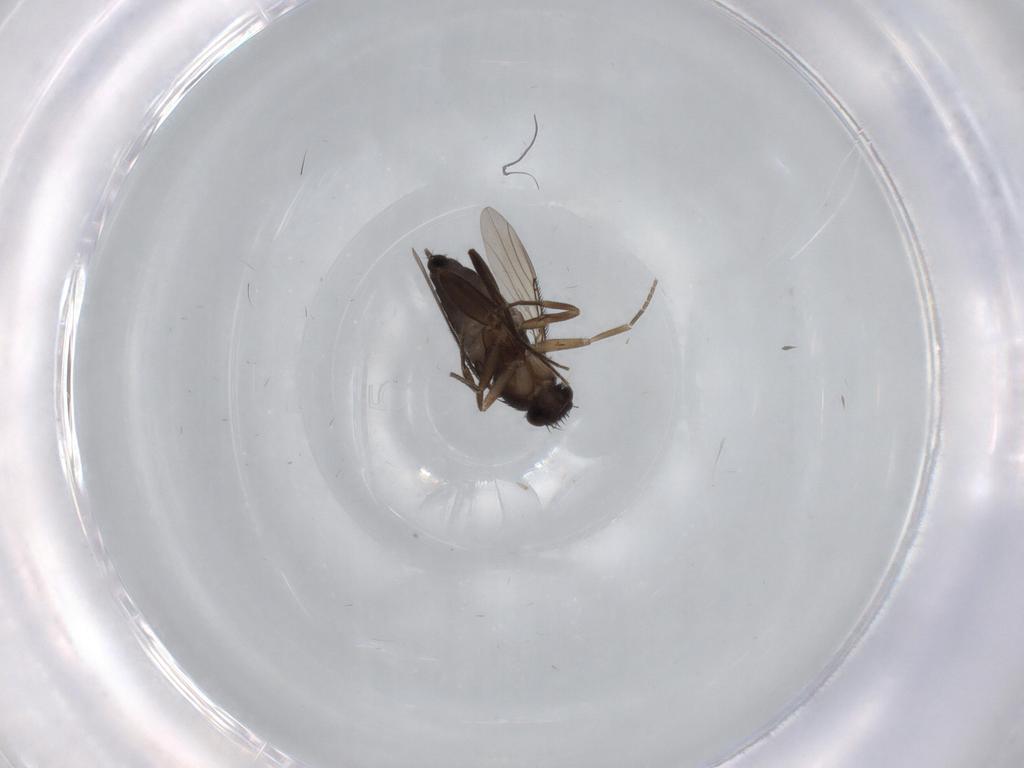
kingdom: Animalia
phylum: Arthropoda
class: Insecta
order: Diptera
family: Phoridae
